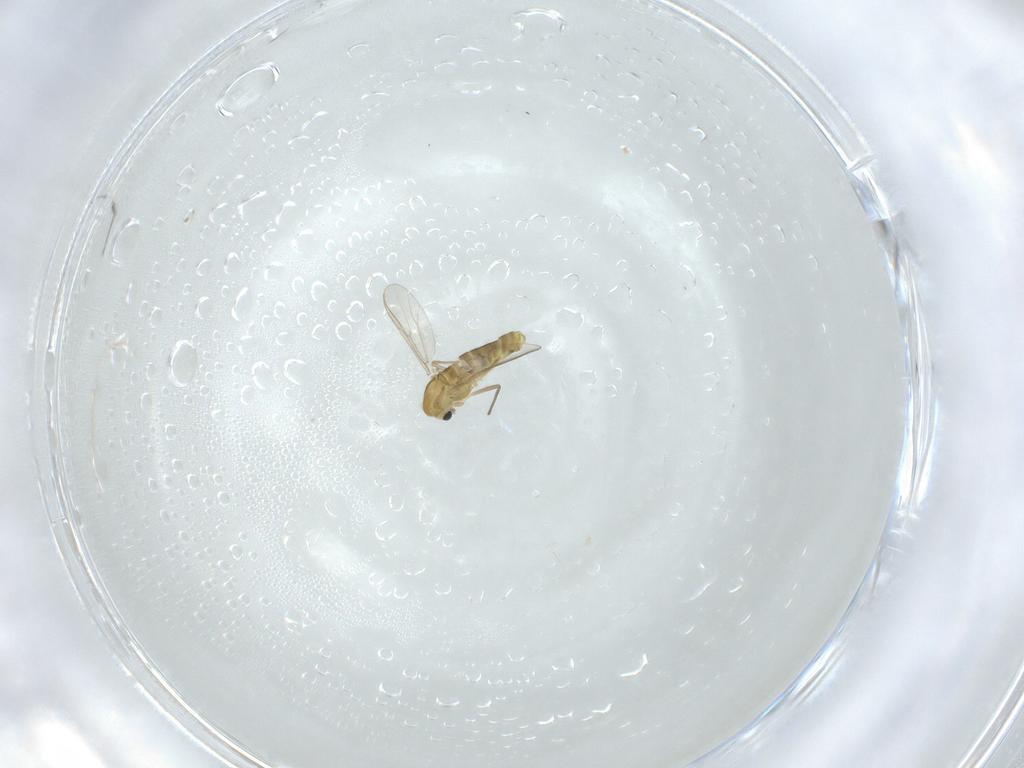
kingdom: Animalia
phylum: Arthropoda
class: Insecta
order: Diptera
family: Chironomidae
